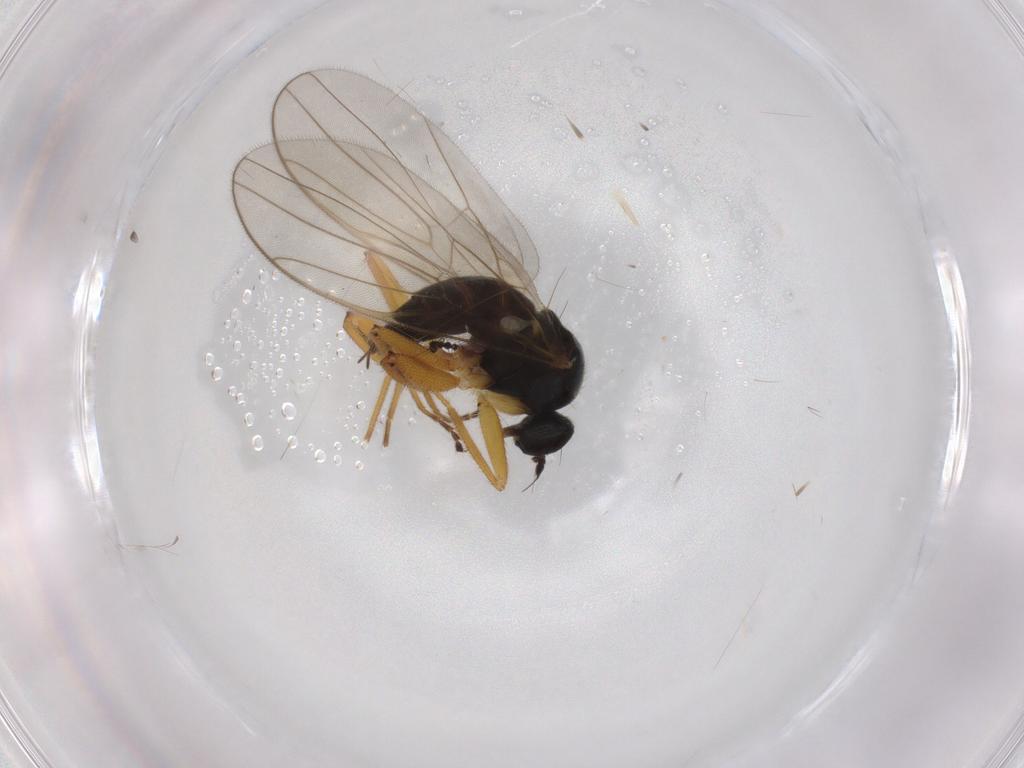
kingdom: Animalia
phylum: Arthropoda
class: Insecta
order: Diptera
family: Hybotidae
